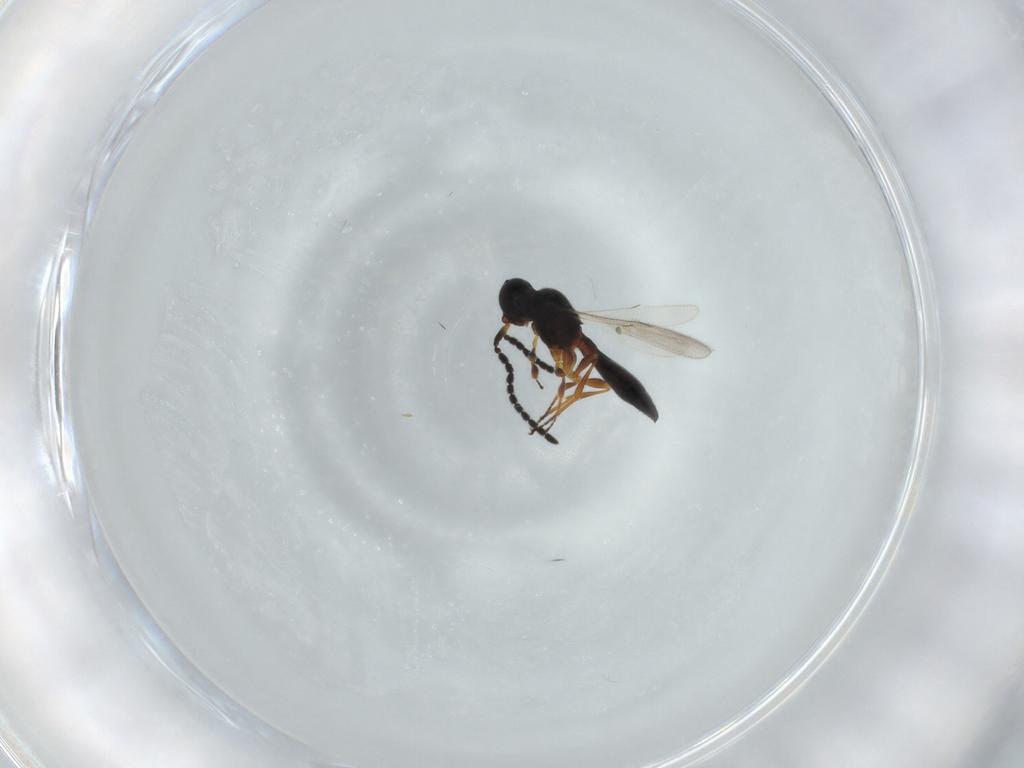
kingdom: Animalia
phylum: Arthropoda
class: Insecta
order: Hymenoptera
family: Scelionidae
